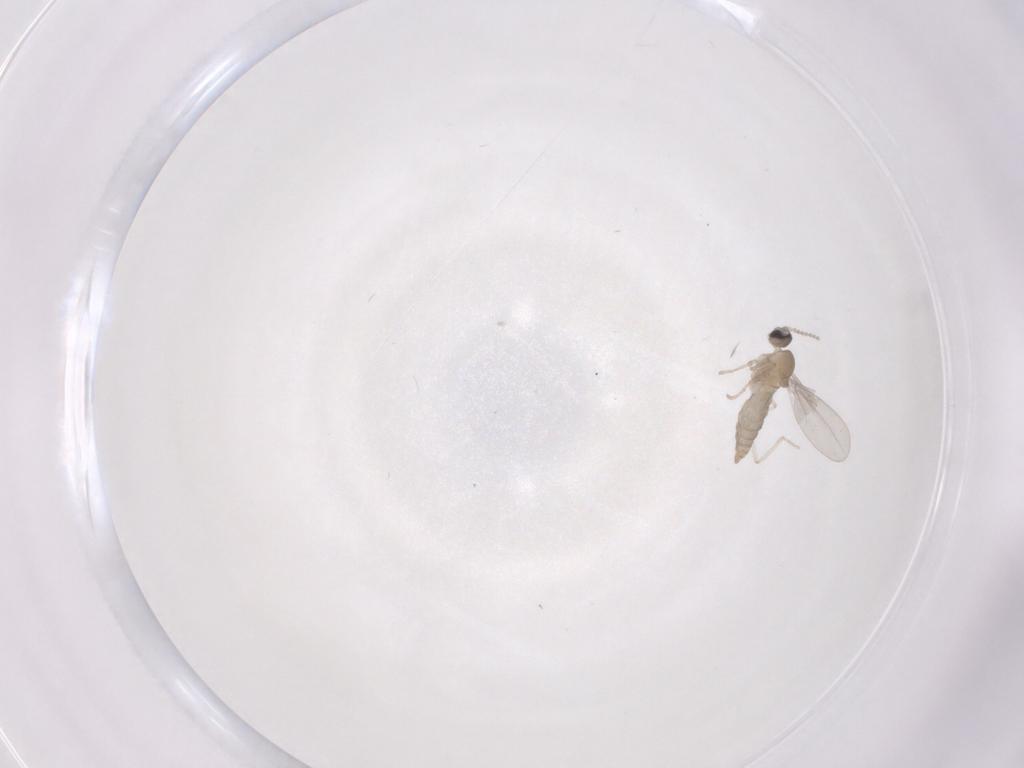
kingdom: Animalia
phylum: Arthropoda
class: Insecta
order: Diptera
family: Cecidomyiidae
